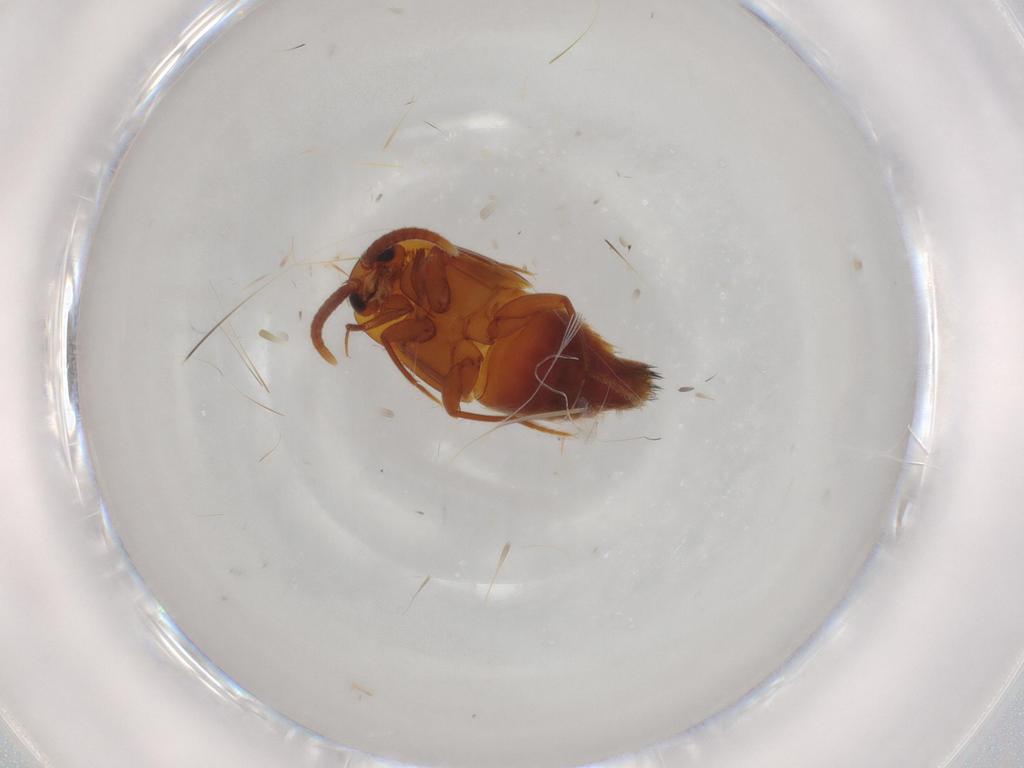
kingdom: Animalia
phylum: Arthropoda
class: Insecta
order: Coleoptera
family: Staphylinidae
